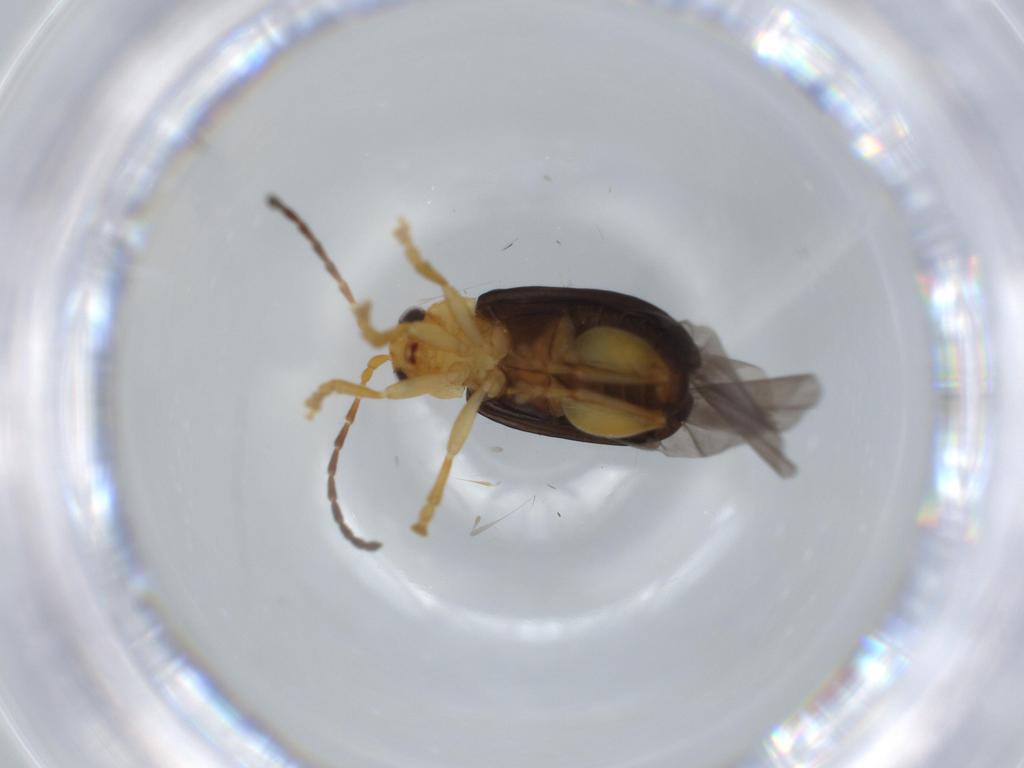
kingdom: Animalia
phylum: Arthropoda
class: Insecta
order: Coleoptera
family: Chrysomelidae
